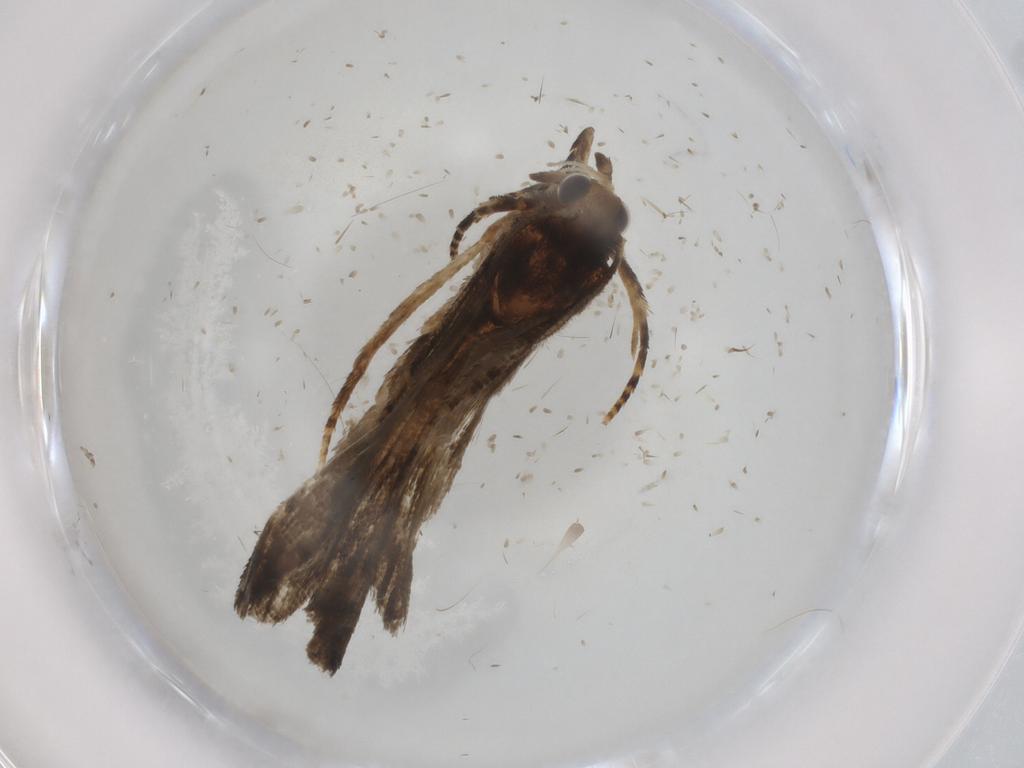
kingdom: Animalia
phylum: Arthropoda
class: Insecta
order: Lepidoptera
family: Tortricidae
